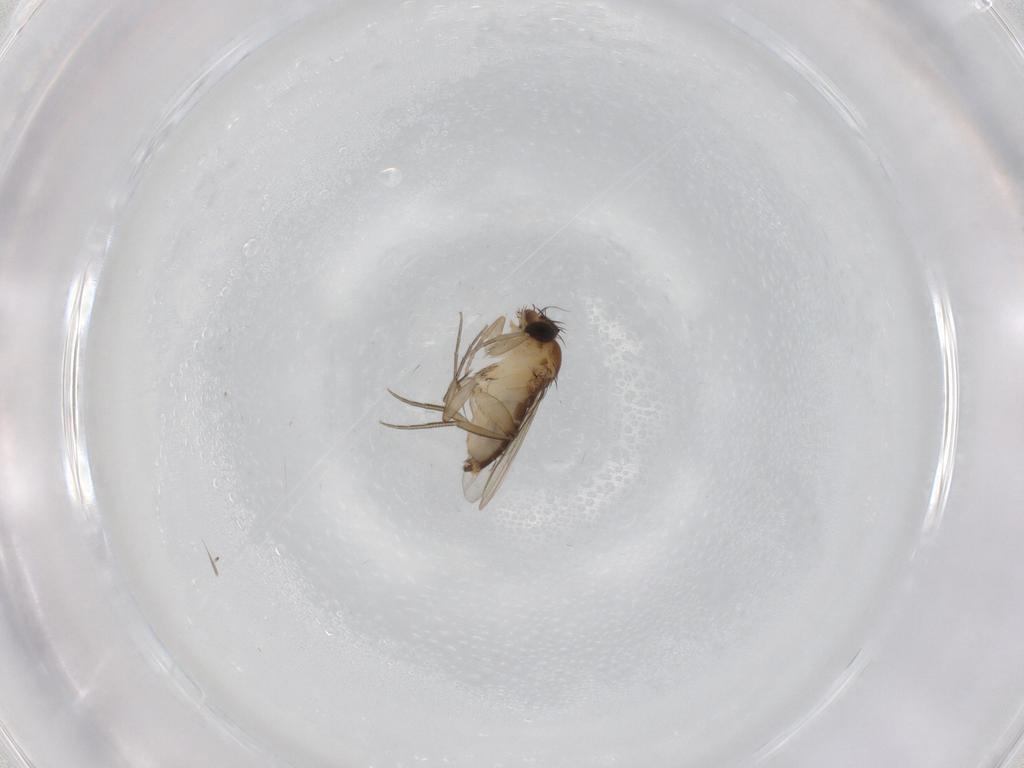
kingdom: Animalia
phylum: Arthropoda
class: Insecta
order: Diptera
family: Phoridae
